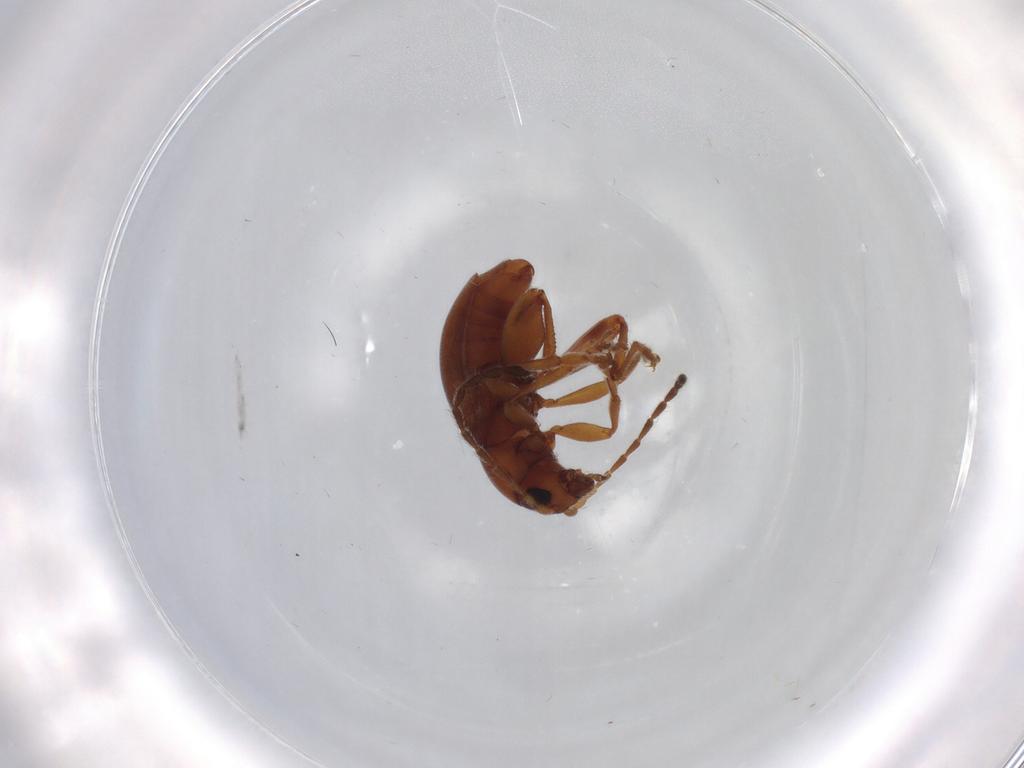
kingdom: Animalia
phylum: Arthropoda
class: Insecta
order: Coleoptera
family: Chrysomelidae
